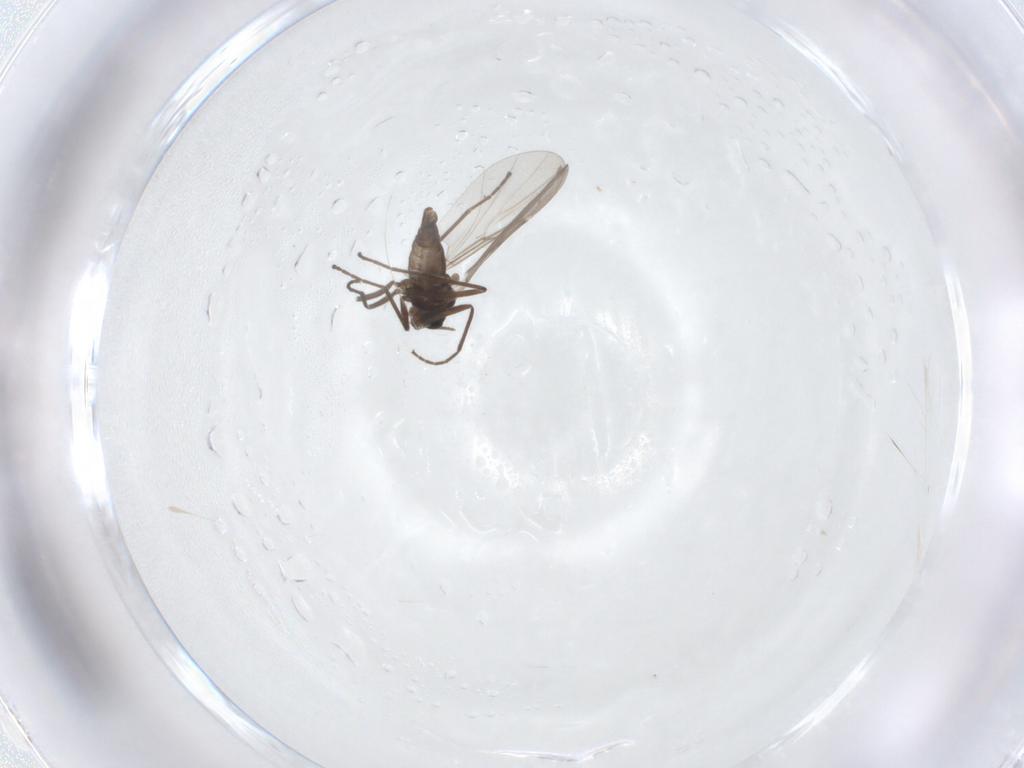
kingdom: Animalia
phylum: Arthropoda
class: Insecta
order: Diptera
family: Cecidomyiidae
